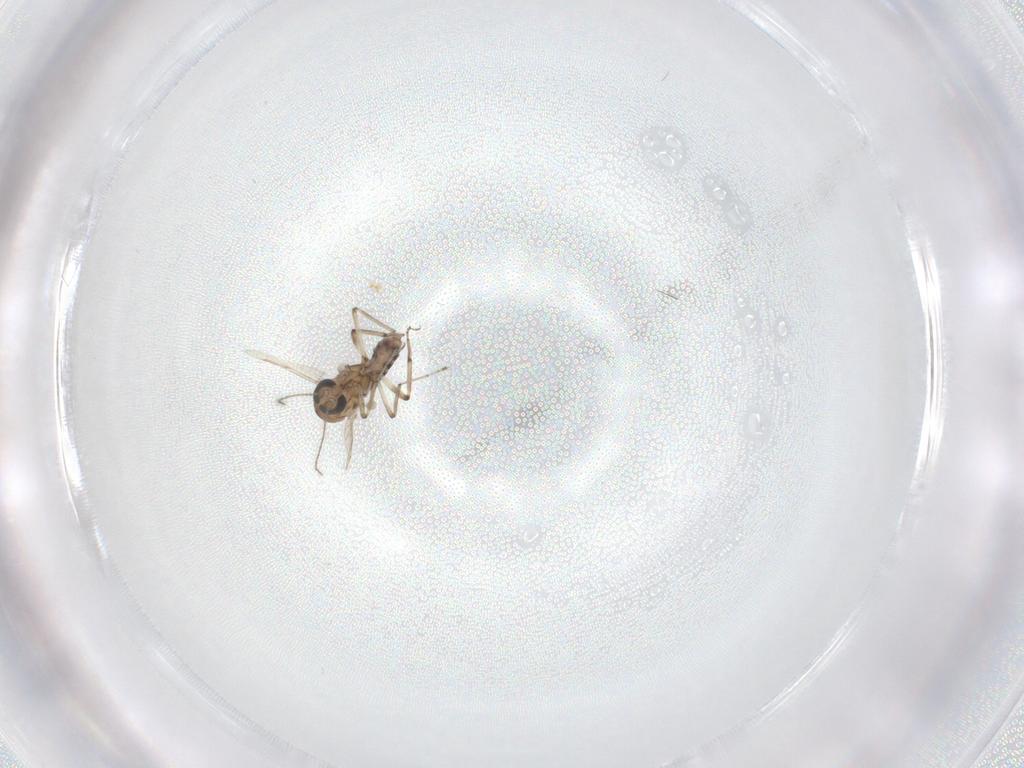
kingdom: Animalia
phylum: Arthropoda
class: Insecta
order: Diptera
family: Ceratopogonidae
